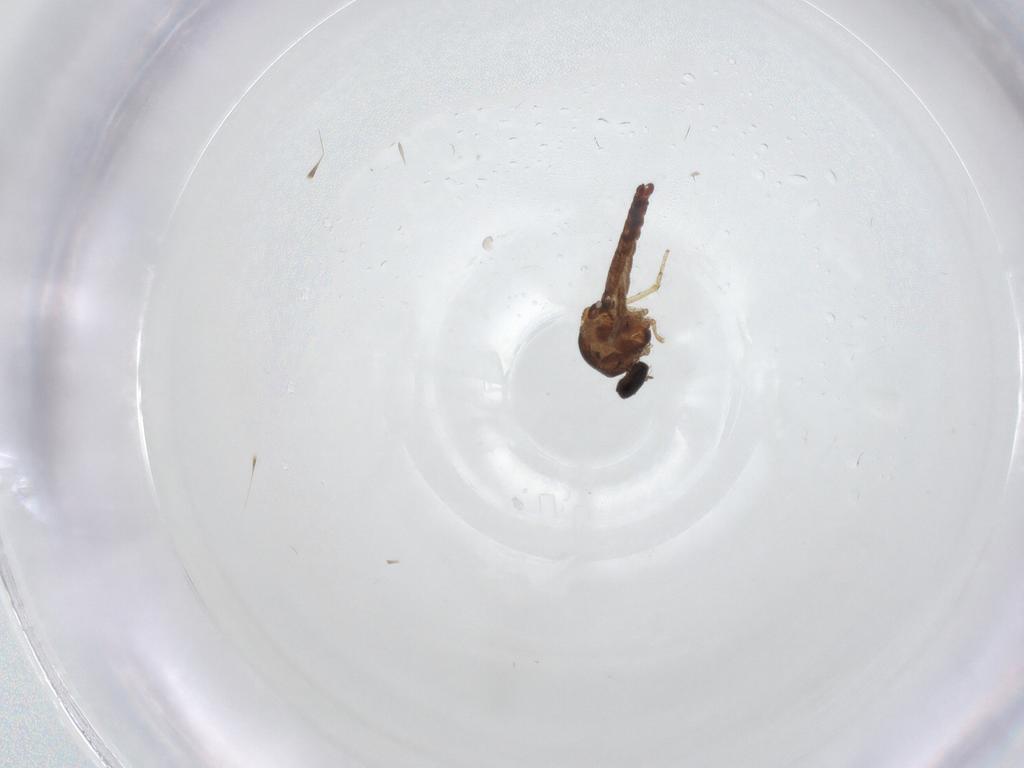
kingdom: Animalia
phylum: Arthropoda
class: Insecta
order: Diptera
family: Ceratopogonidae
